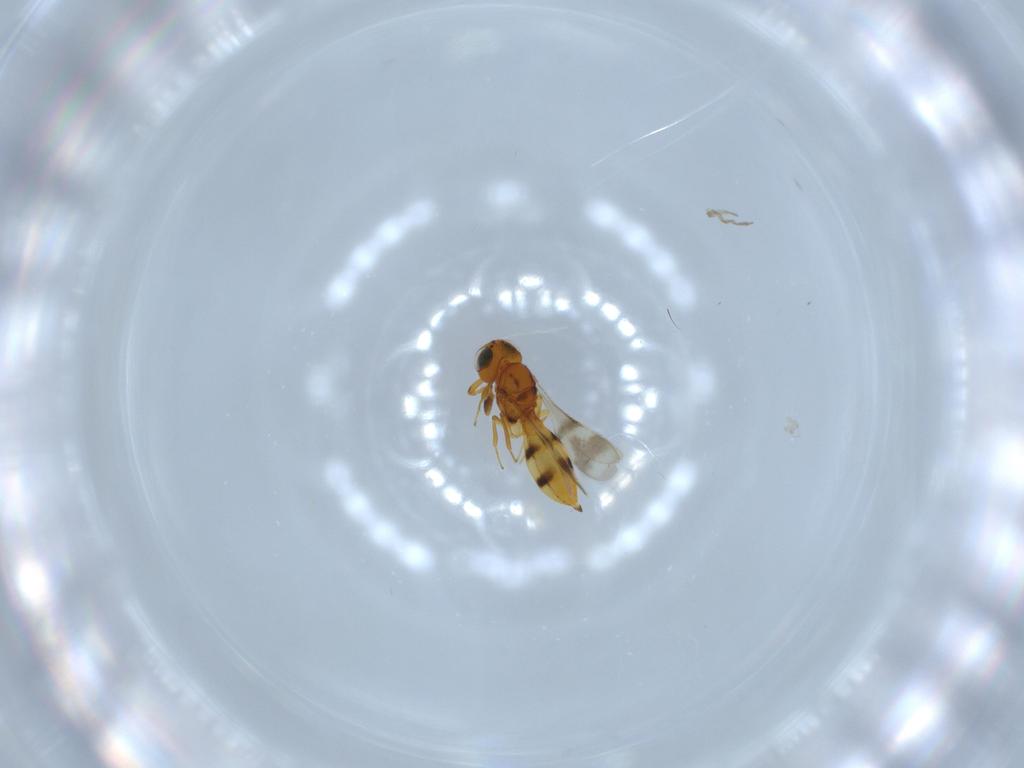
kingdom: Animalia
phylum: Arthropoda
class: Insecta
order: Hymenoptera
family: Scelionidae
